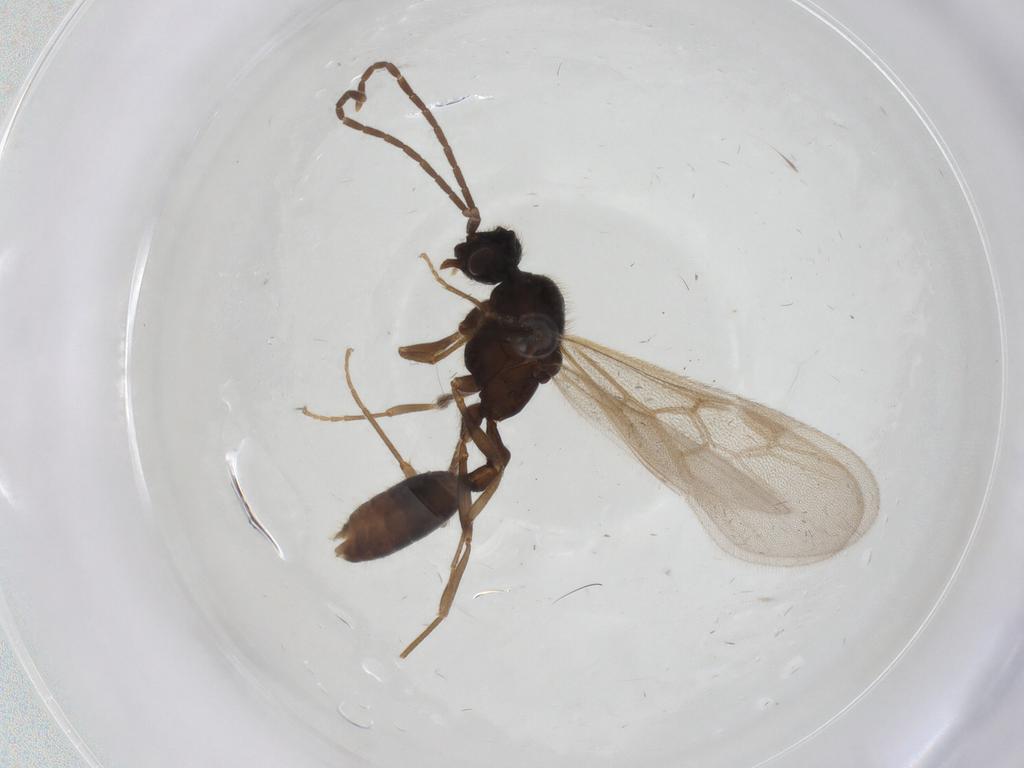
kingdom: Animalia
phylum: Arthropoda
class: Insecta
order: Hymenoptera
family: Formicidae
